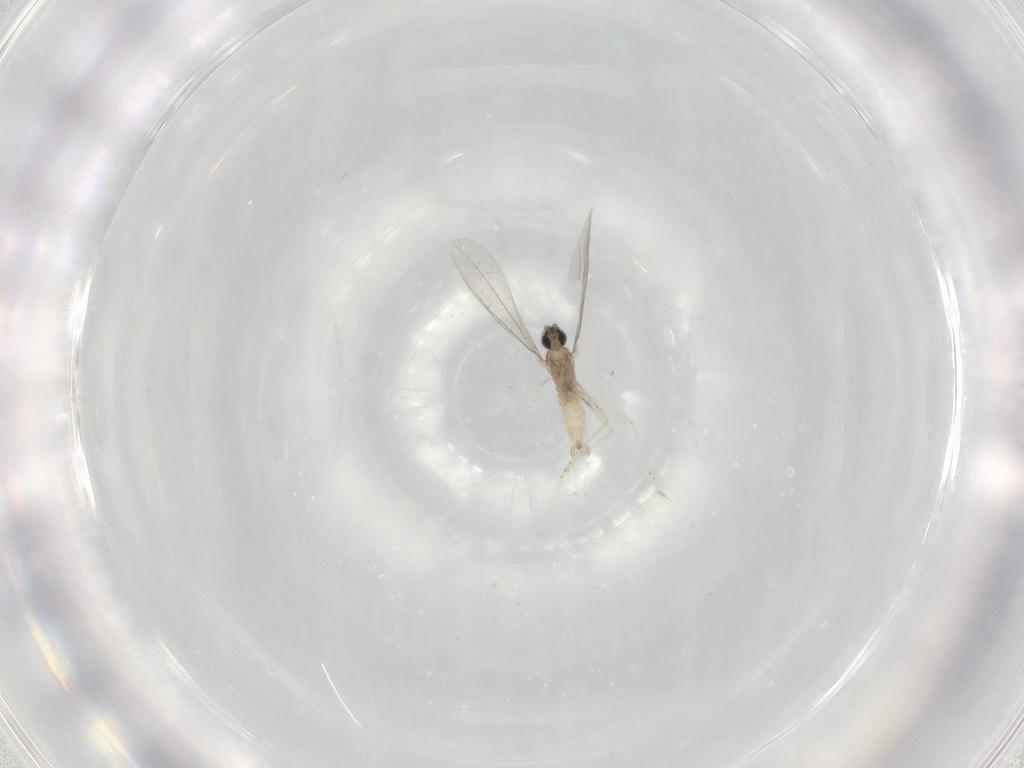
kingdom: Animalia
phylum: Arthropoda
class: Insecta
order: Diptera
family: Cecidomyiidae
